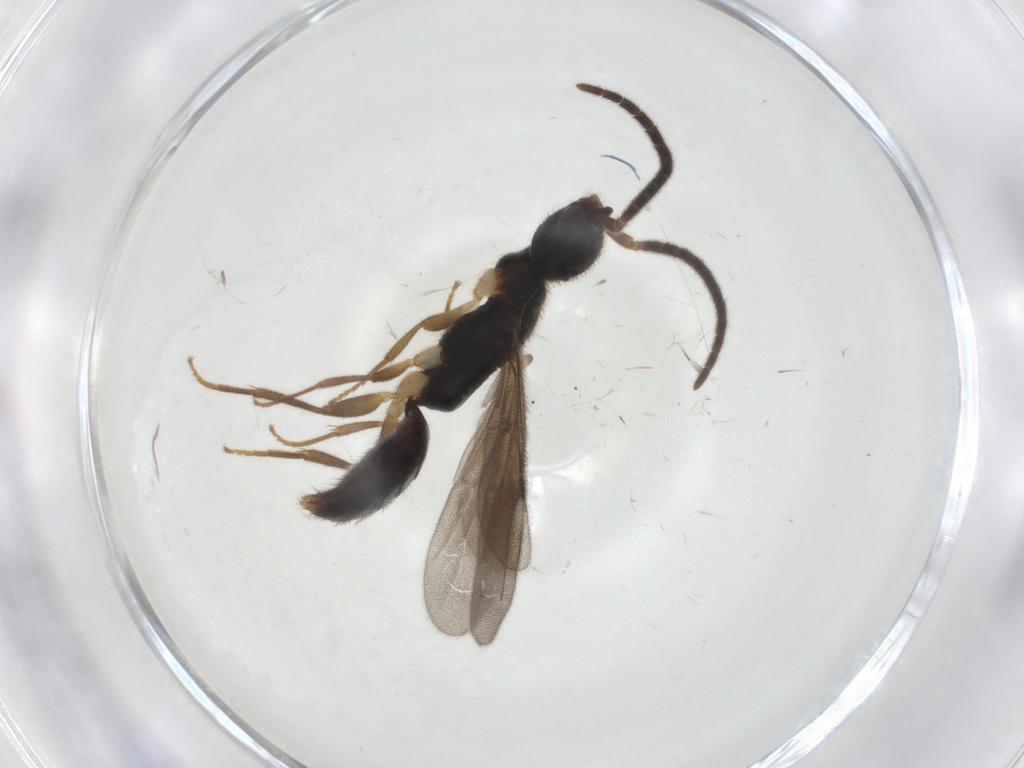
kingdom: Animalia
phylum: Arthropoda
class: Insecta
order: Hymenoptera
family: Bethylidae
